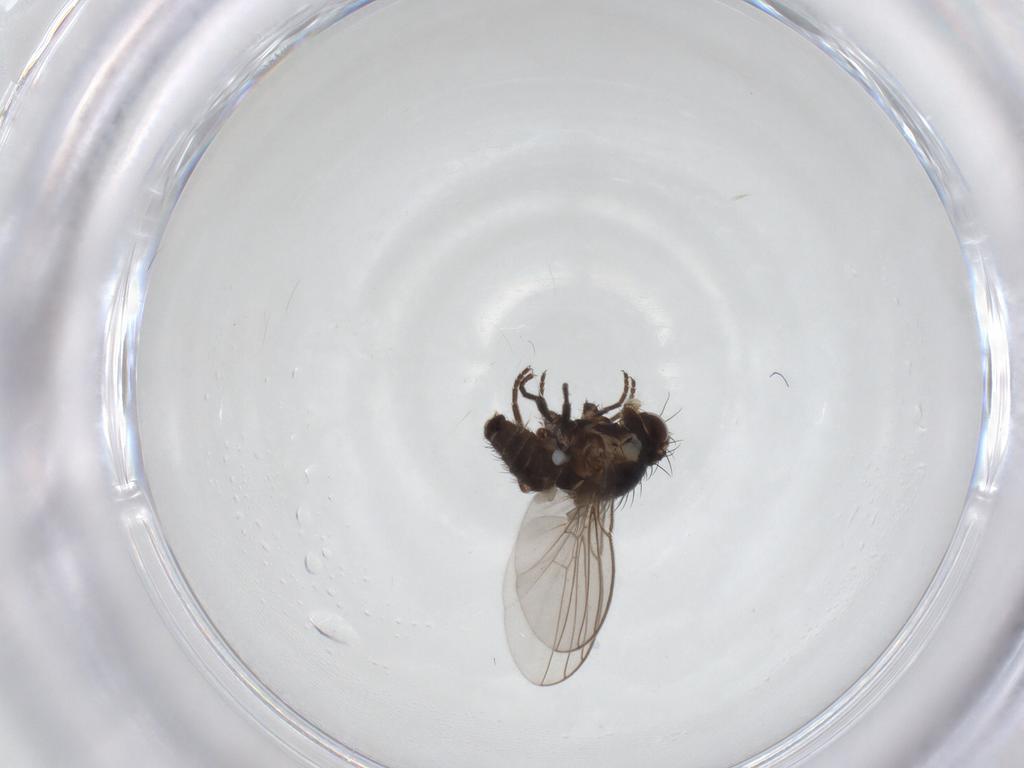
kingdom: Animalia
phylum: Arthropoda
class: Insecta
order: Diptera
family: Agromyzidae
